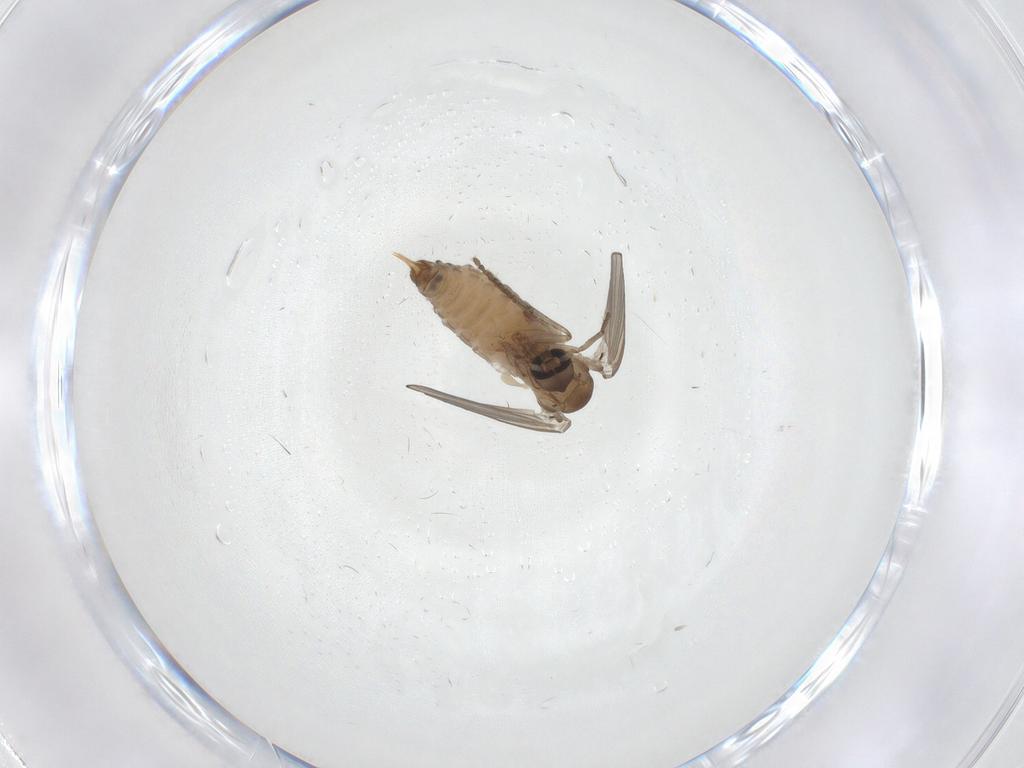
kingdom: Animalia
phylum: Arthropoda
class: Insecta
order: Diptera
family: Psychodidae
